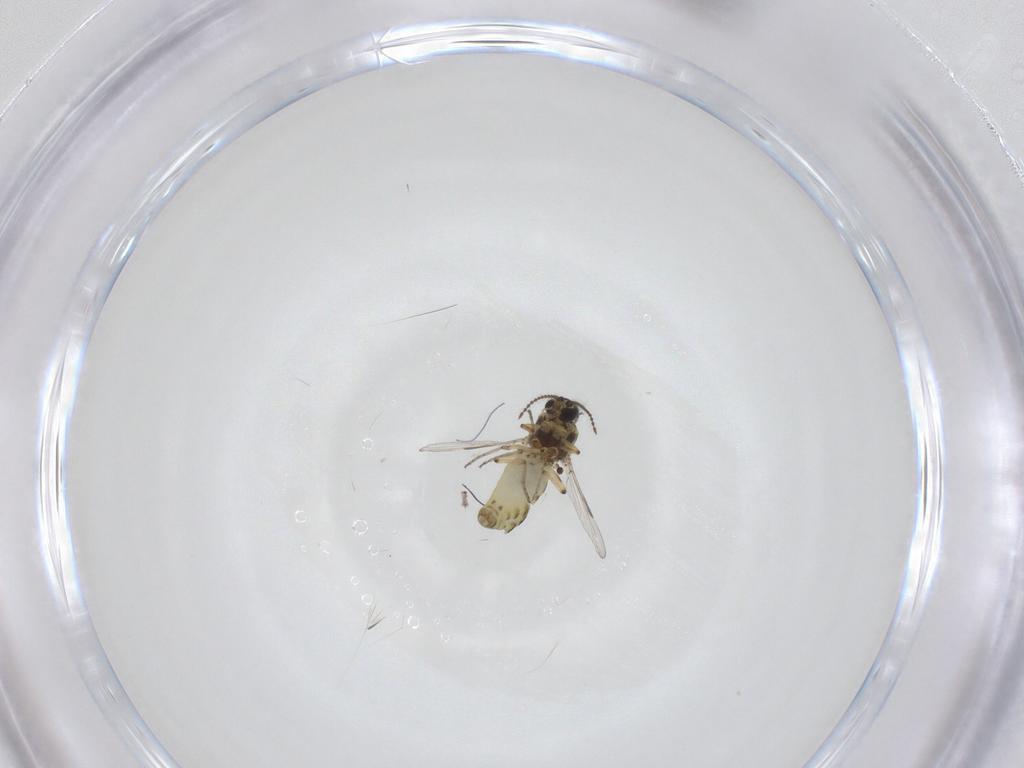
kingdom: Animalia
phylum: Arthropoda
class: Insecta
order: Diptera
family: Ceratopogonidae
